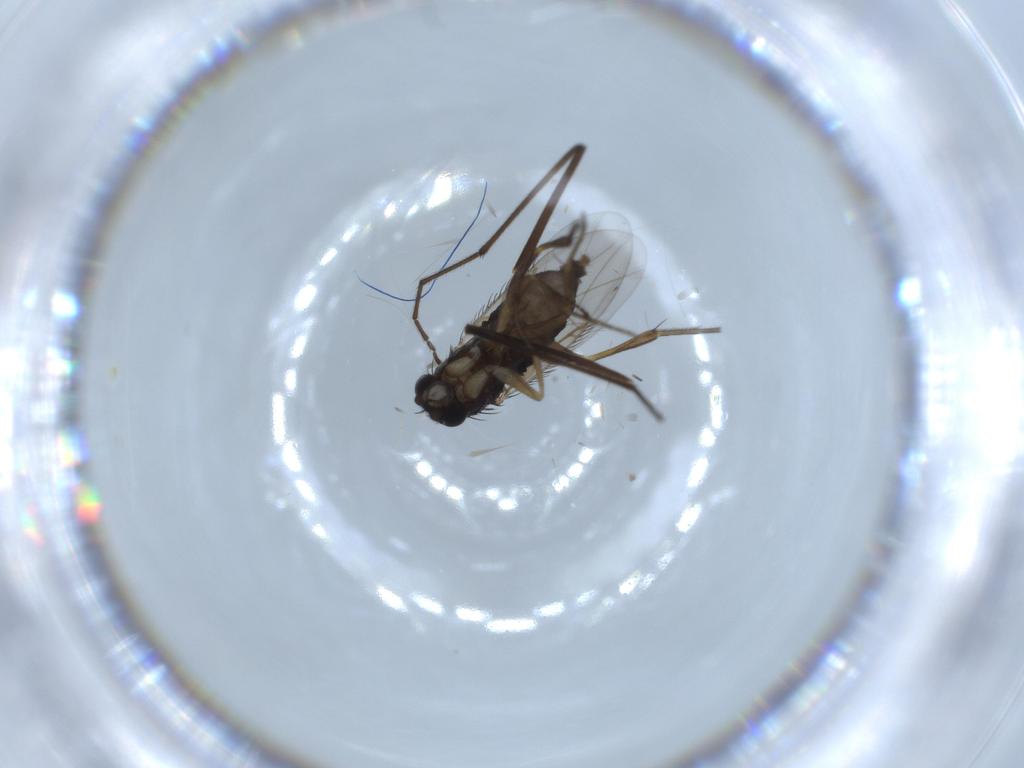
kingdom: Animalia
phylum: Arthropoda
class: Insecta
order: Diptera
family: Phoridae
